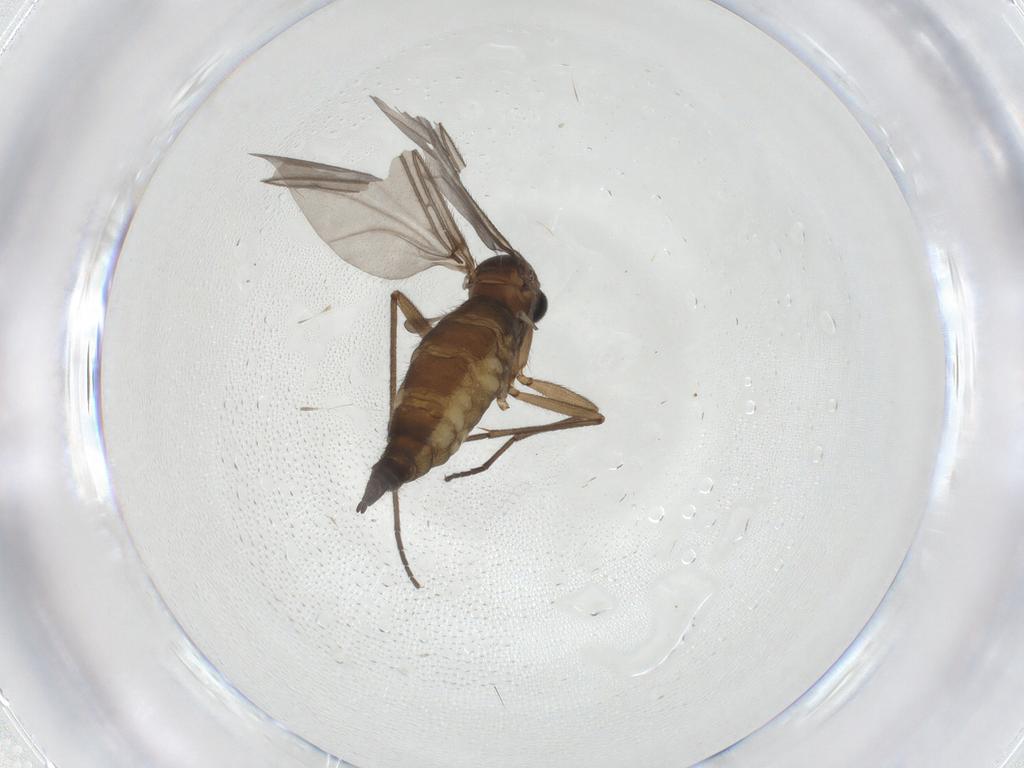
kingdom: Animalia
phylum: Arthropoda
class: Insecta
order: Diptera
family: Sciaridae
